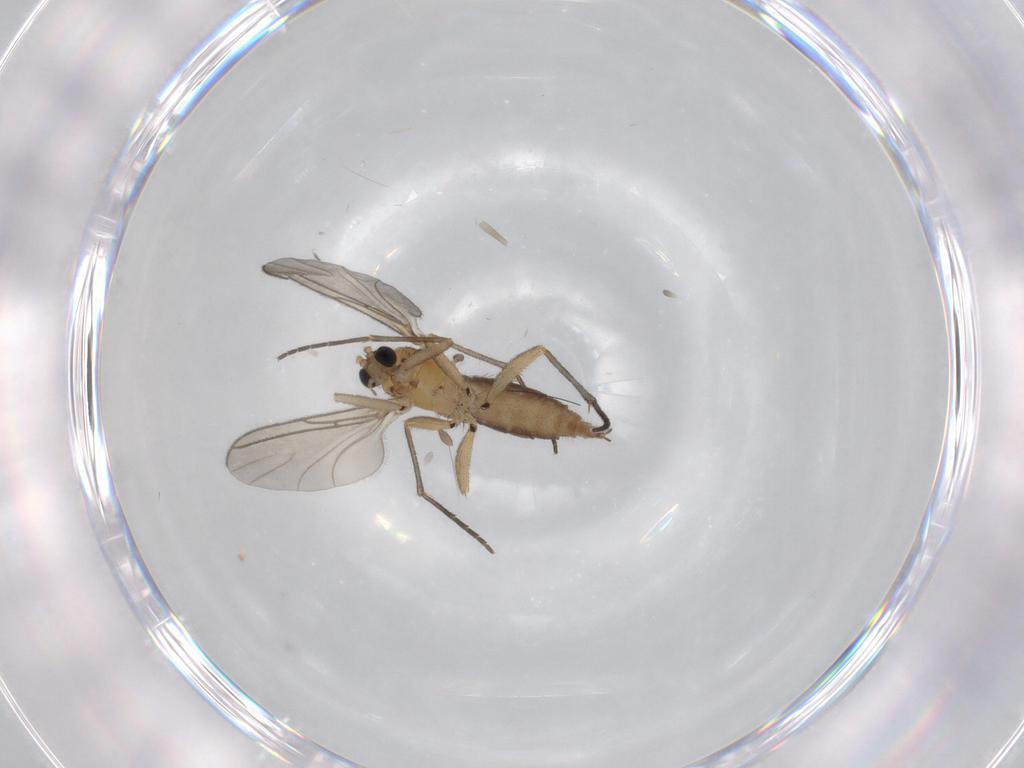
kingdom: Animalia
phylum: Arthropoda
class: Insecta
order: Diptera
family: Sciaridae
